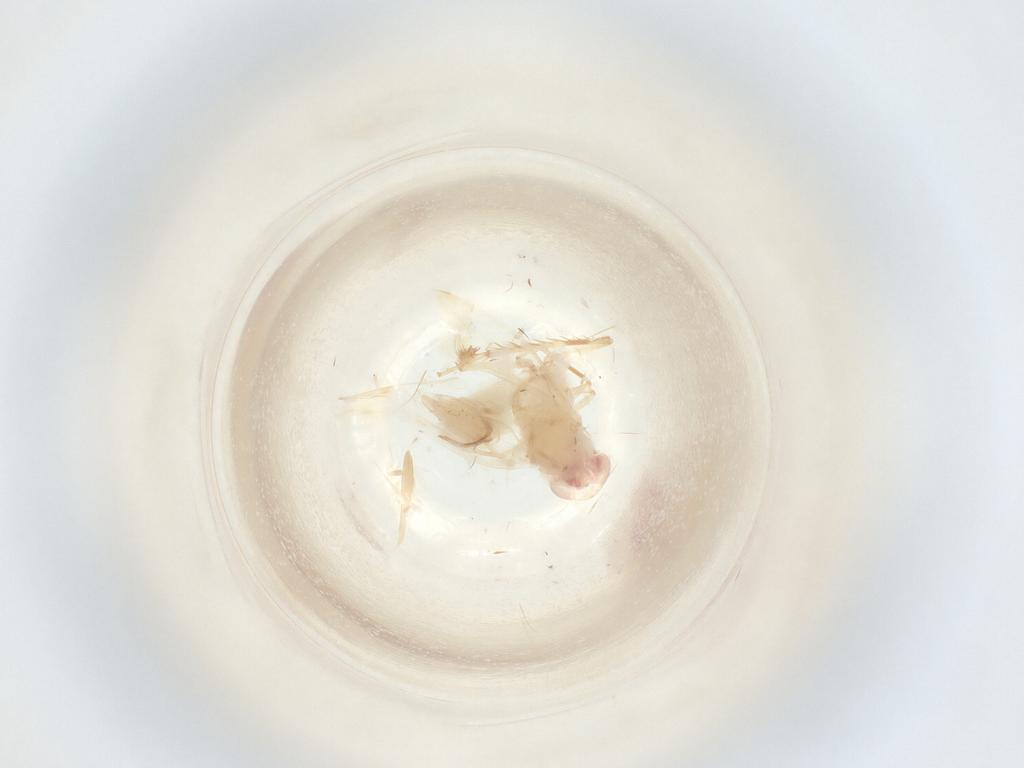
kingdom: Animalia
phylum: Arthropoda
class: Insecta
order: Hemiptera
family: Cicadellidae
